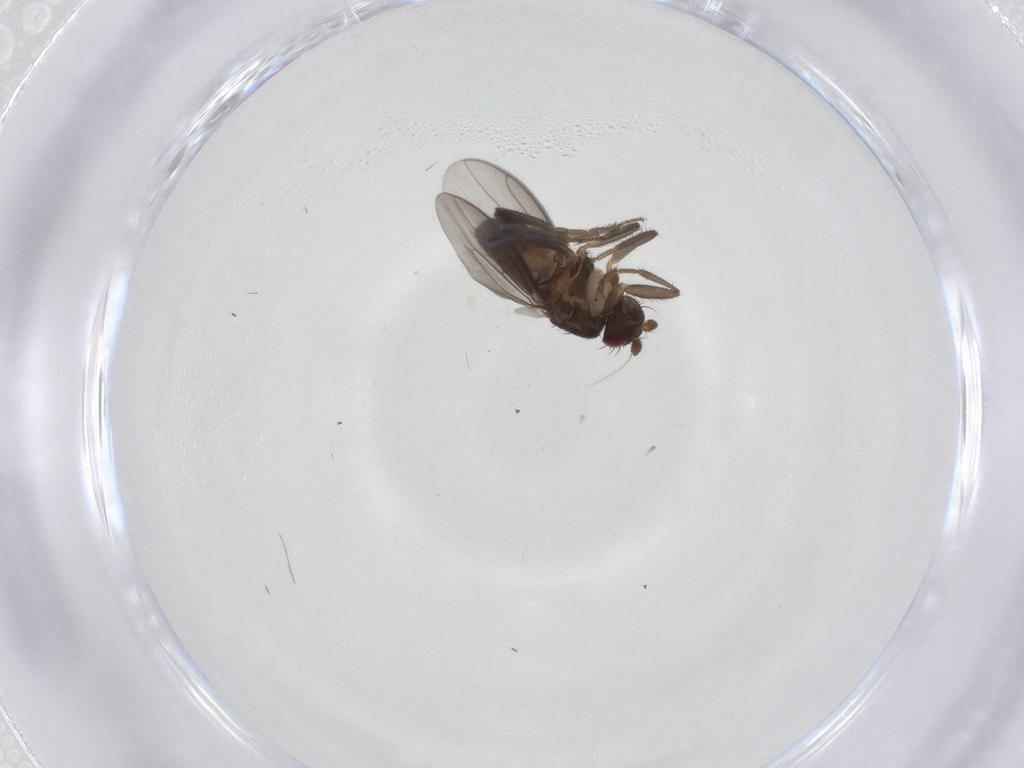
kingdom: Animalia
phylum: Arthropoda
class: Insecta
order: Diptera
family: Sphaeroceridae
